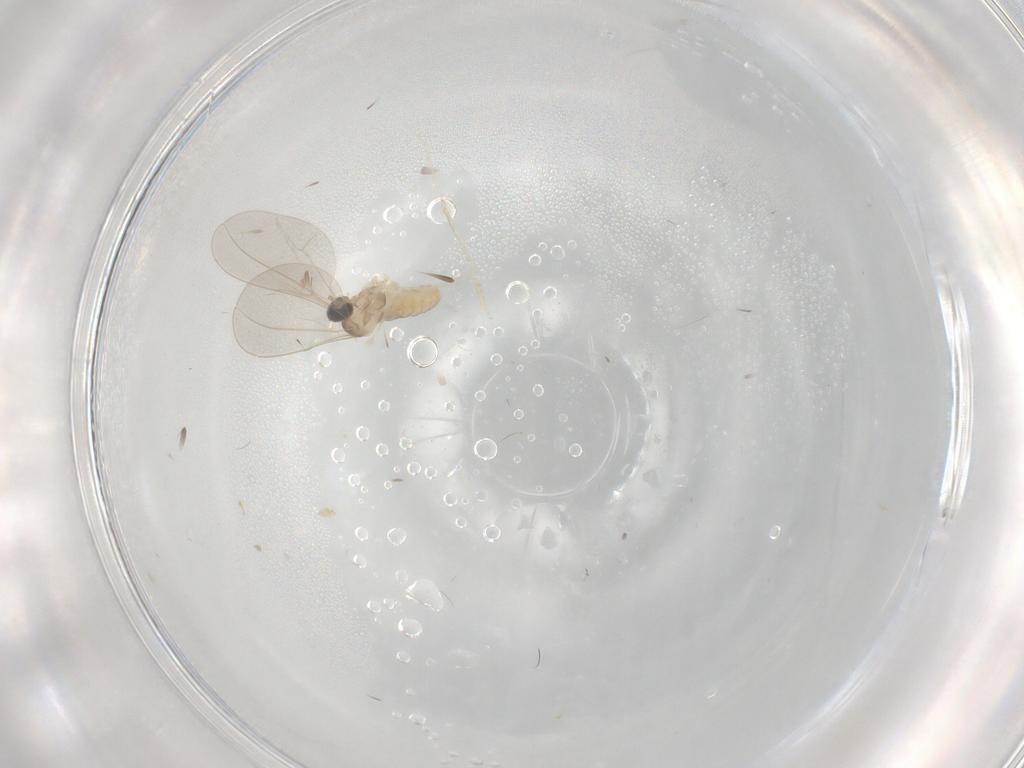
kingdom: Animalia
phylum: Arthropoda
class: Insecta
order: Diptera
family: Cecidomyiidae
